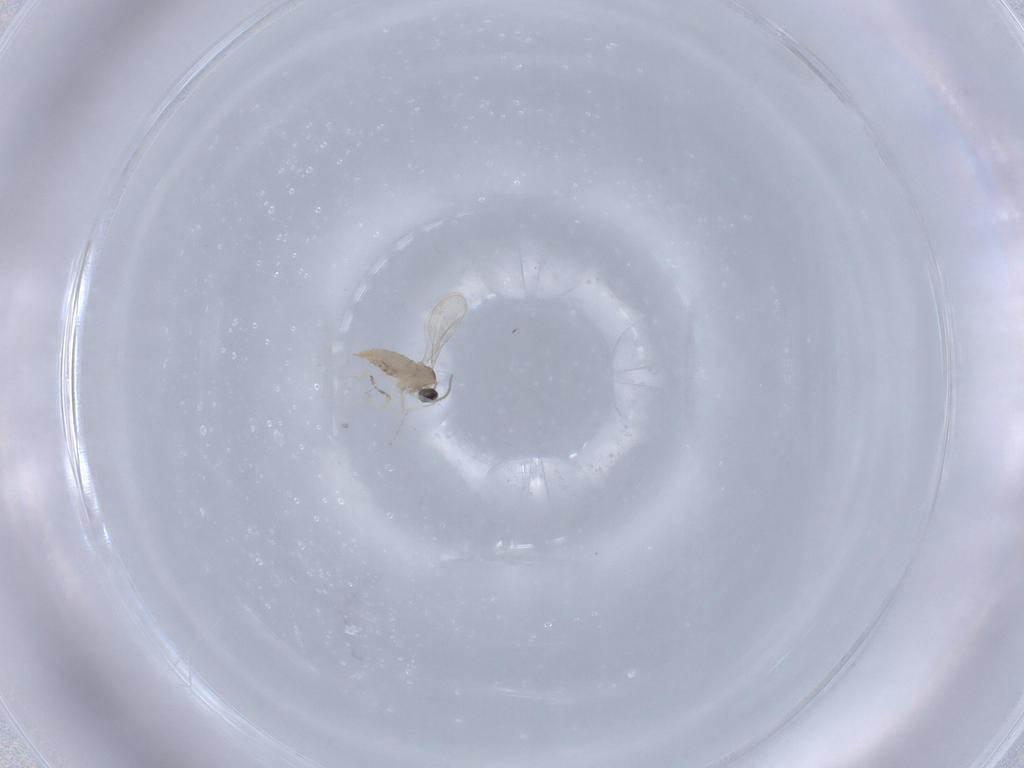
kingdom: Animalia
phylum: Arthropoda
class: Insecta
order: Diptera
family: Cecidomyiidae
